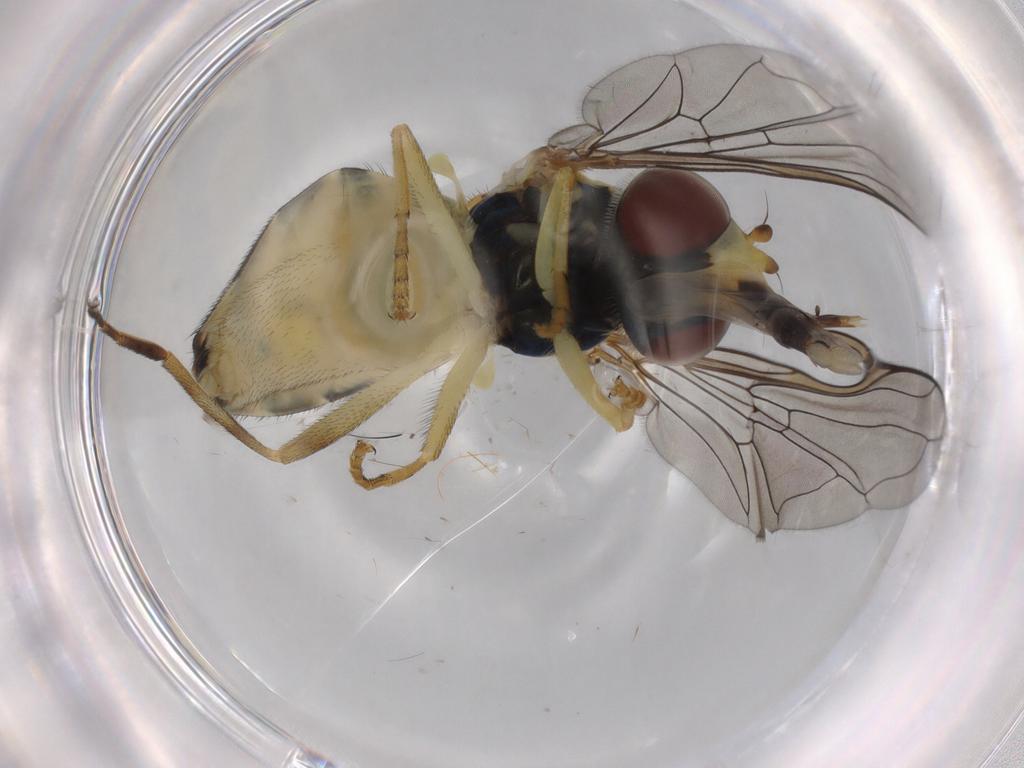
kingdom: Animalia
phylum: Arthropoda
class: Insecta
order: Diptera
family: Syrphidae
